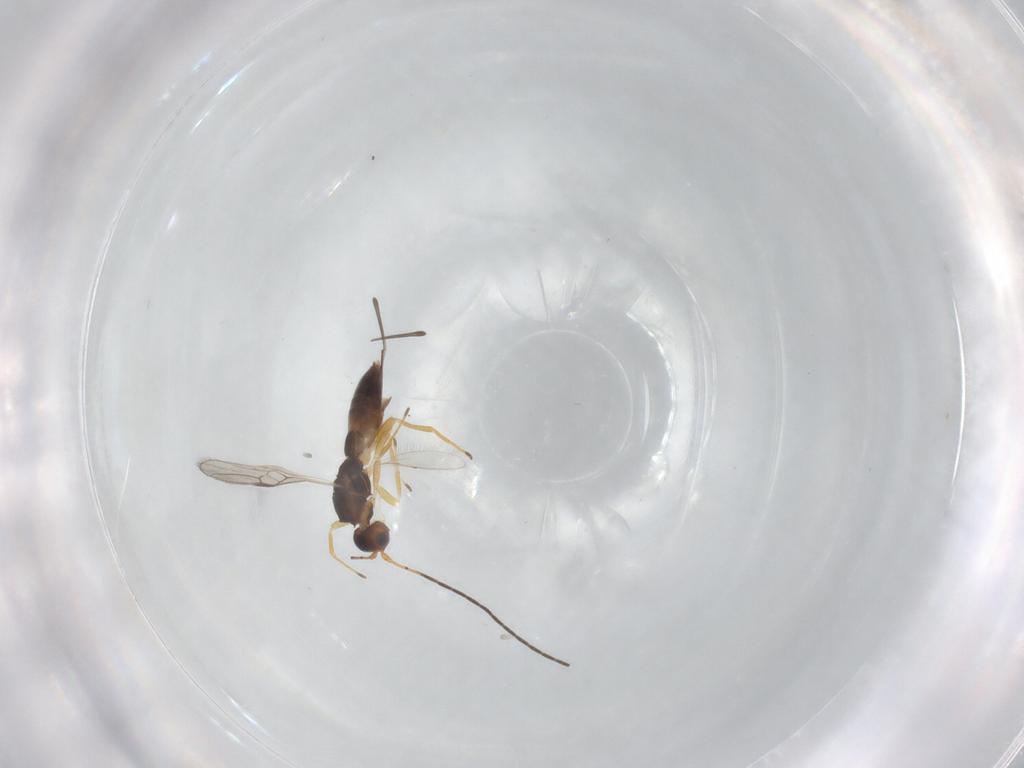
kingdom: Animalia
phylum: Arthropoda
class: Insecta
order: Hymenoptera
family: Braconidae
